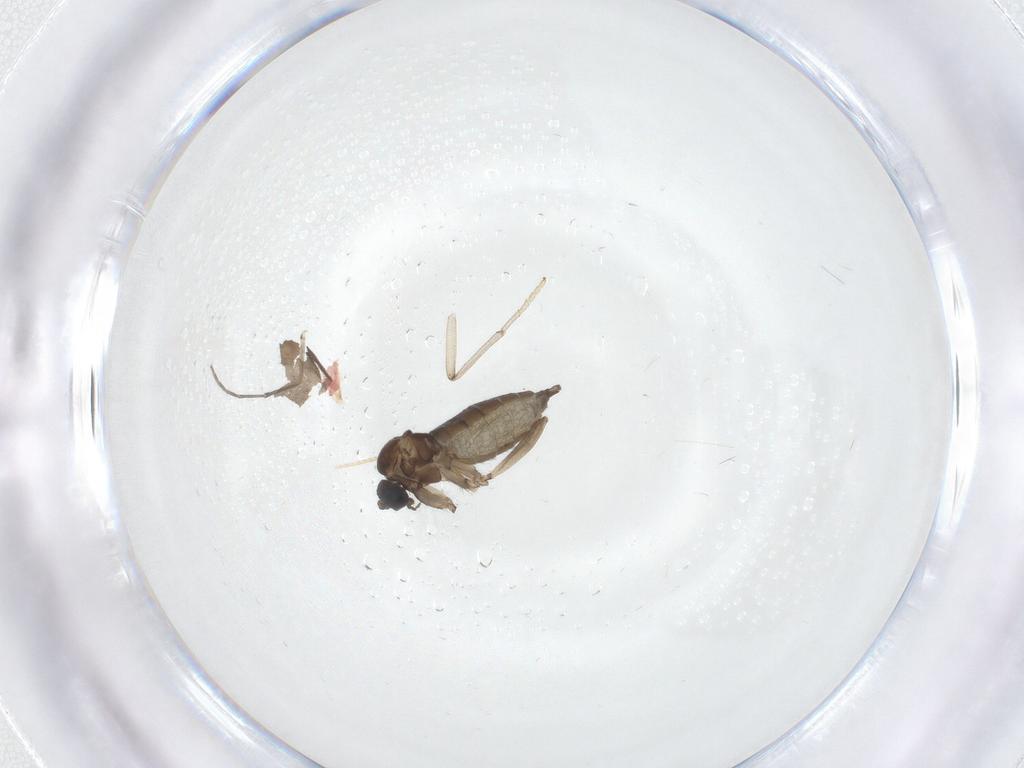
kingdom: Animalia
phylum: Arthropoda
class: Insecta
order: Diptera
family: Sciaridae
